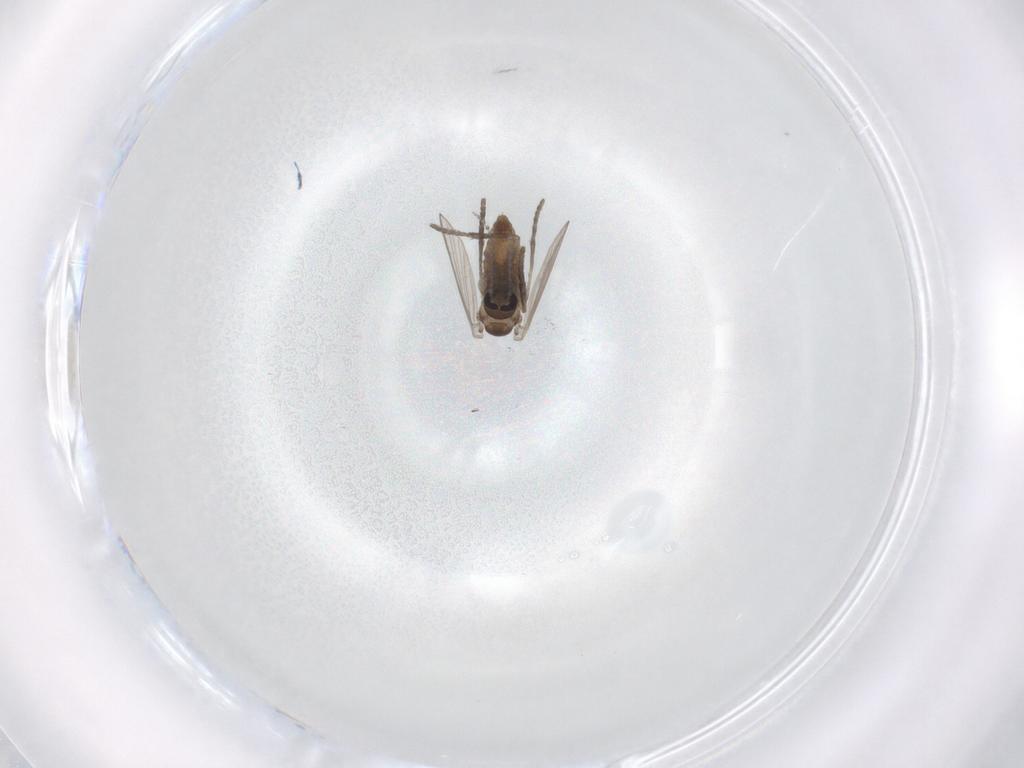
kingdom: Animalia
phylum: Arthropoda
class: Insecta
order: Diptera
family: Psychodidae
